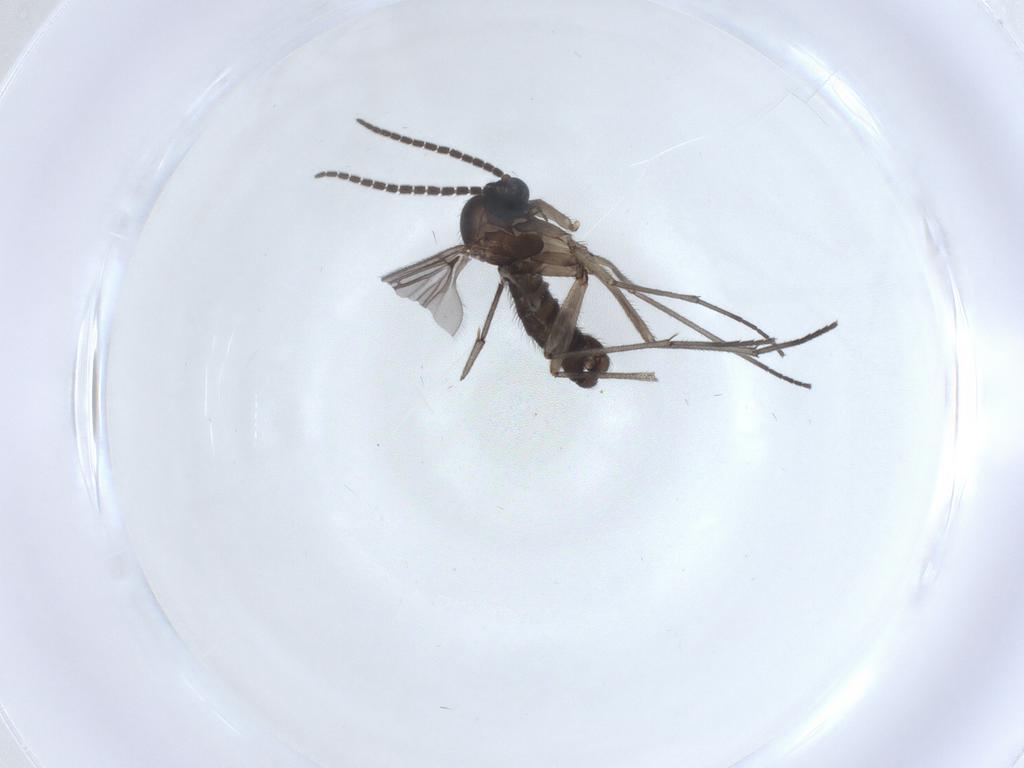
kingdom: Animalia
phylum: Arthropoda
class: Insecta
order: Diptera
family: Sciaridae
